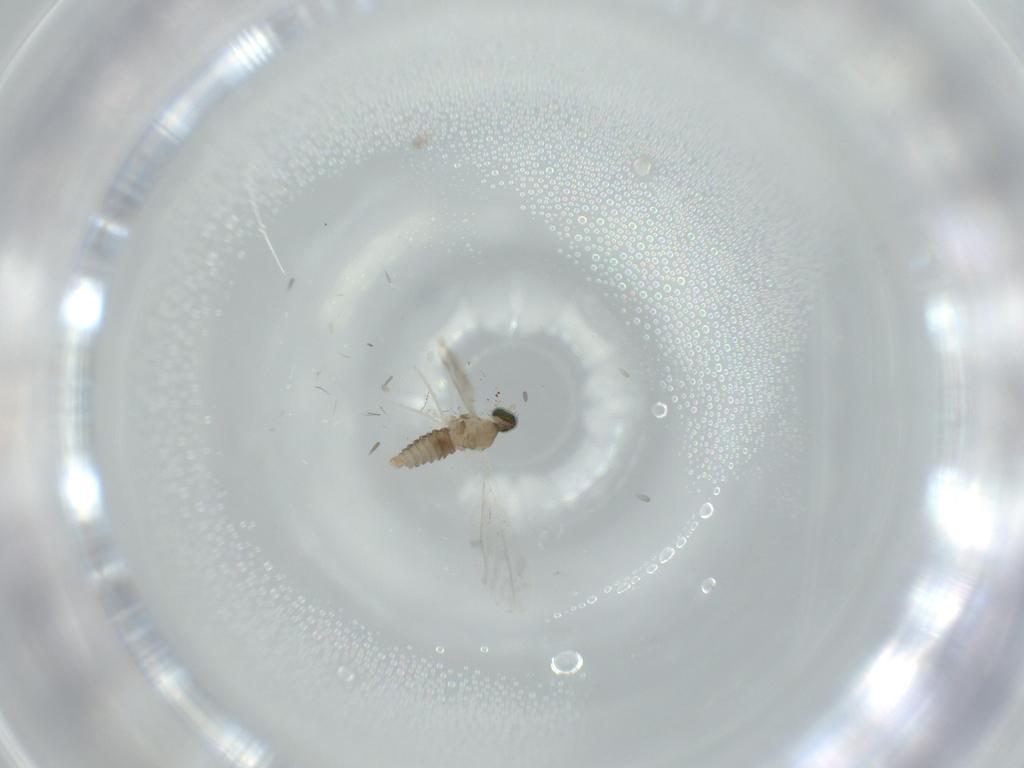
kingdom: Animalia
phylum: Arthropoda
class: Insecta
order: Diptera
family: Cecidomyiidae
